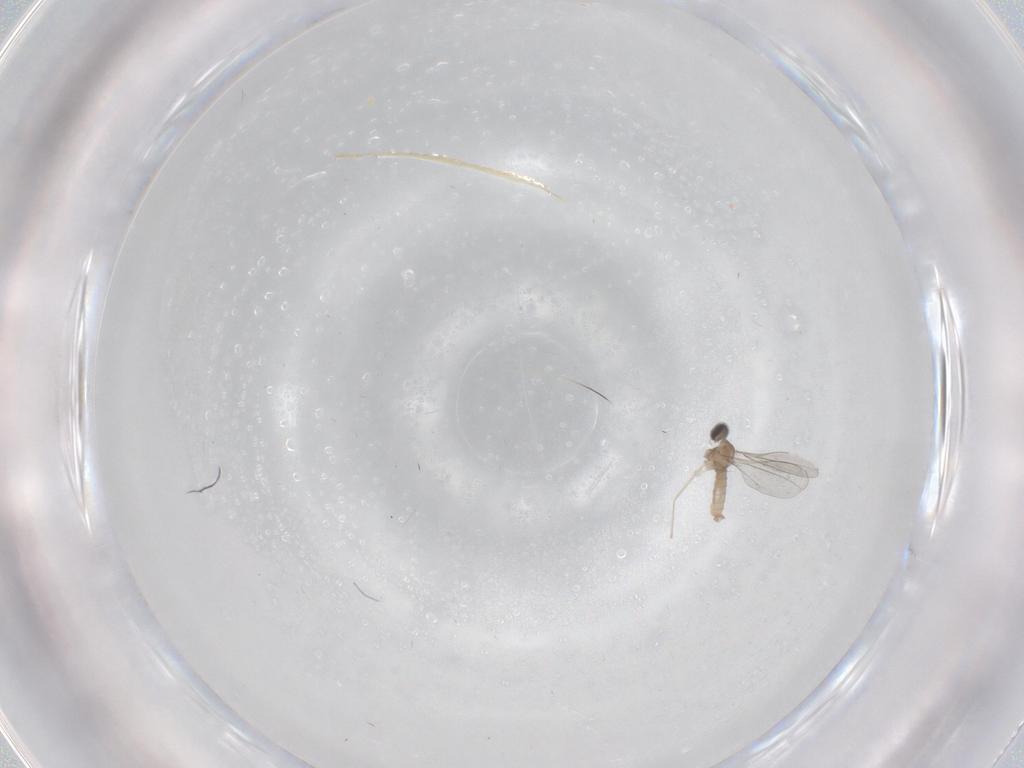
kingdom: Animalia
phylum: Arthropoda
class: Insecta
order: Diptera
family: Cecidomyiidae
